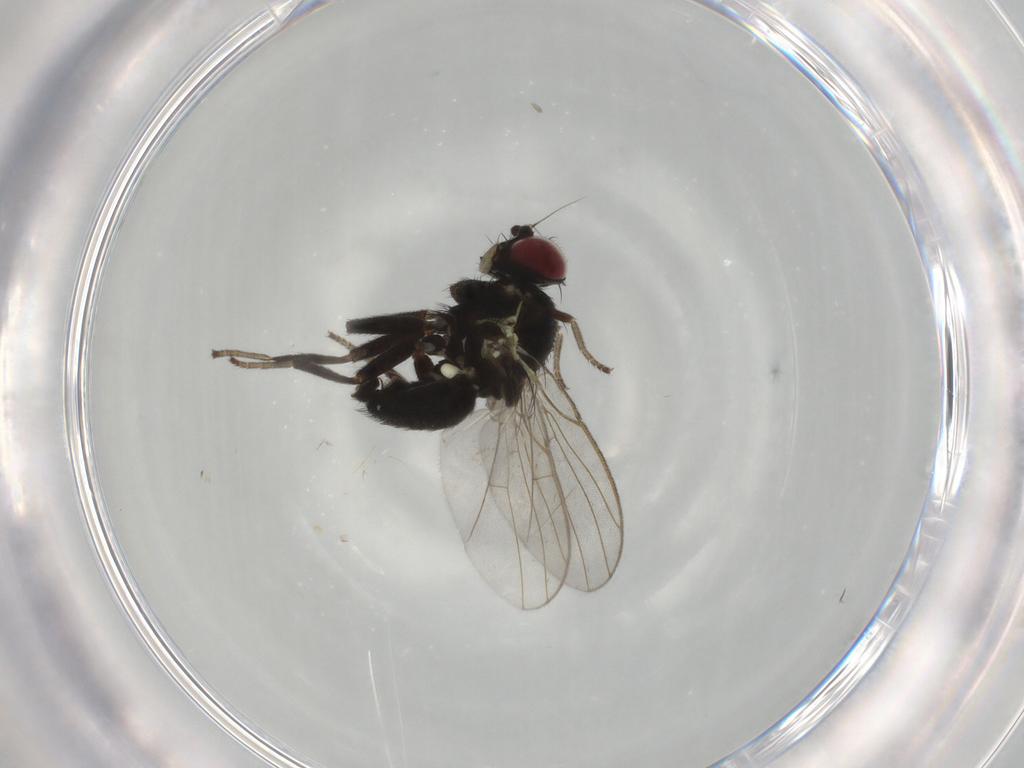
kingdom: Animalia
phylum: Arthropoda
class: Insecta
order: Diptera
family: Agromyzidae
